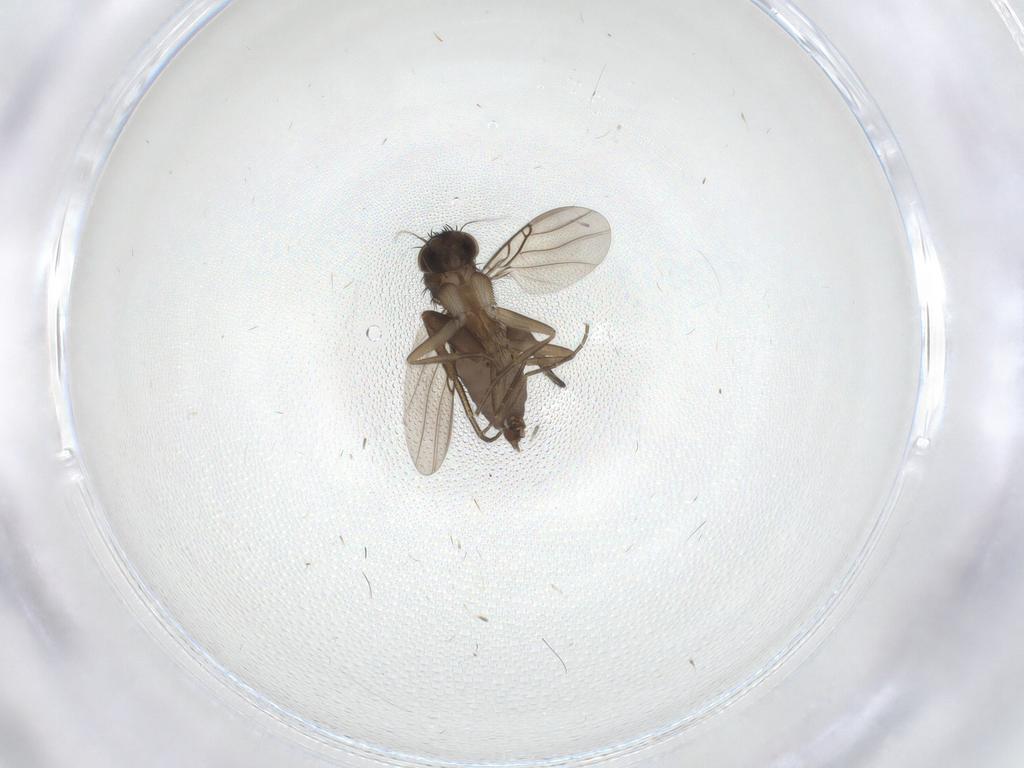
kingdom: Animalia
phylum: Arthropoda
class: Insecta
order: Diptera
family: Phoridae
